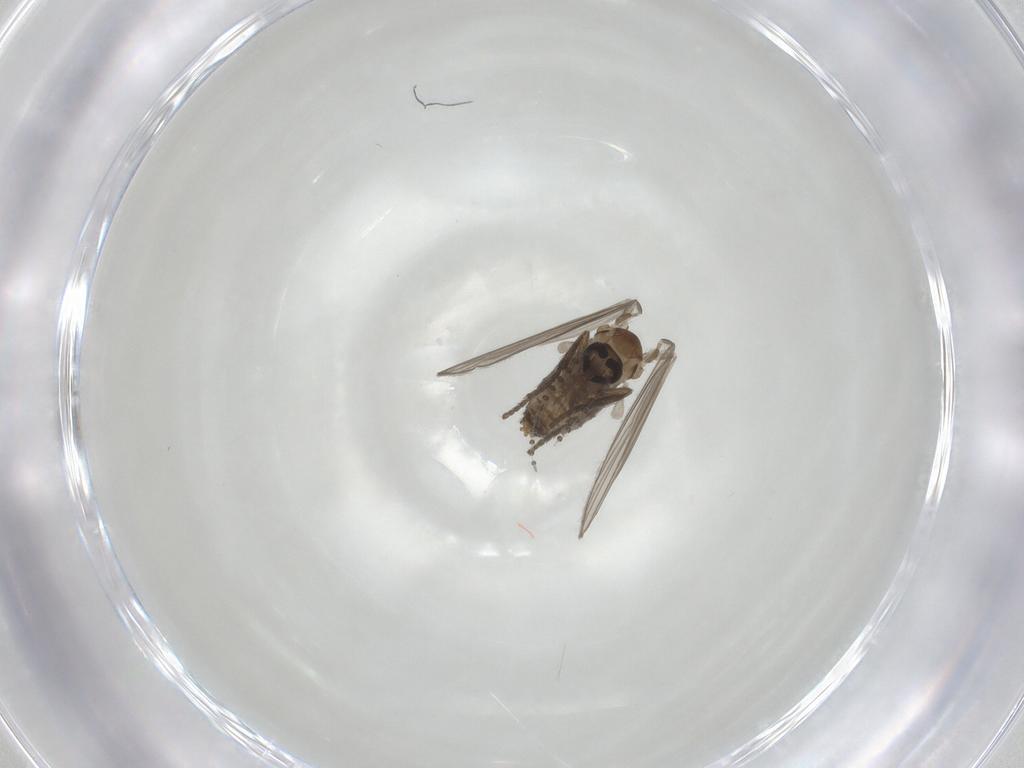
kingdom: Animalia
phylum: Arthropoda
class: Insecta
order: Diptera
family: Psychodidae
